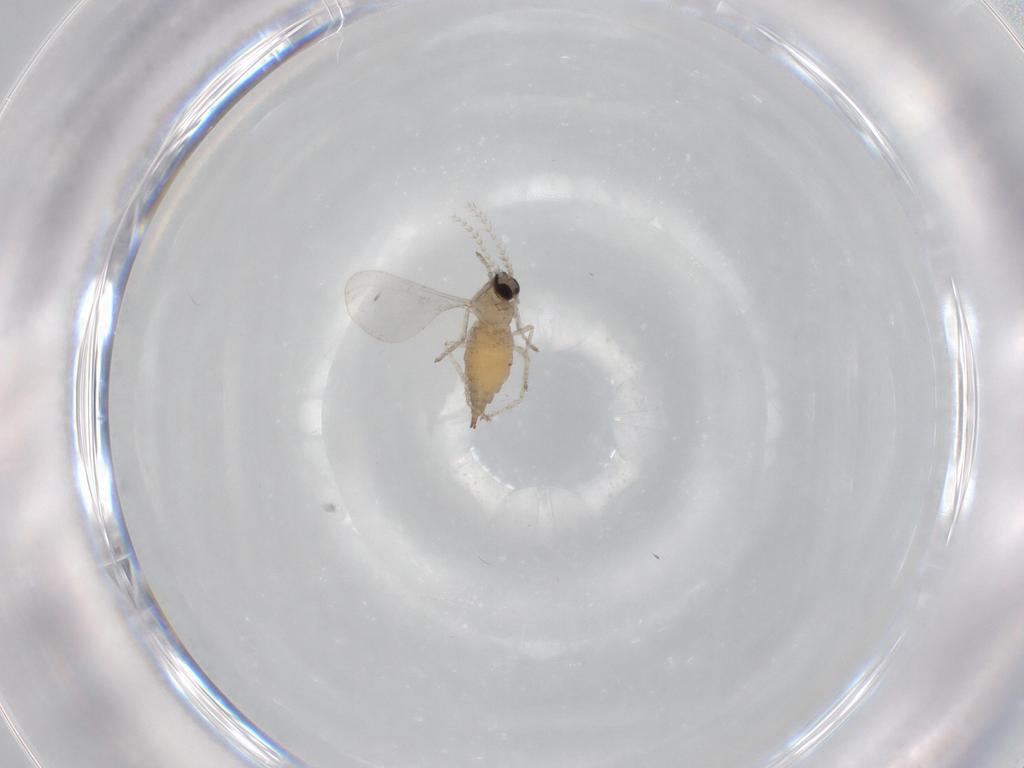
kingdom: Animalia
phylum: Arthropoda
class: Insecta
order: Diptera
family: Cecidomyiidae
